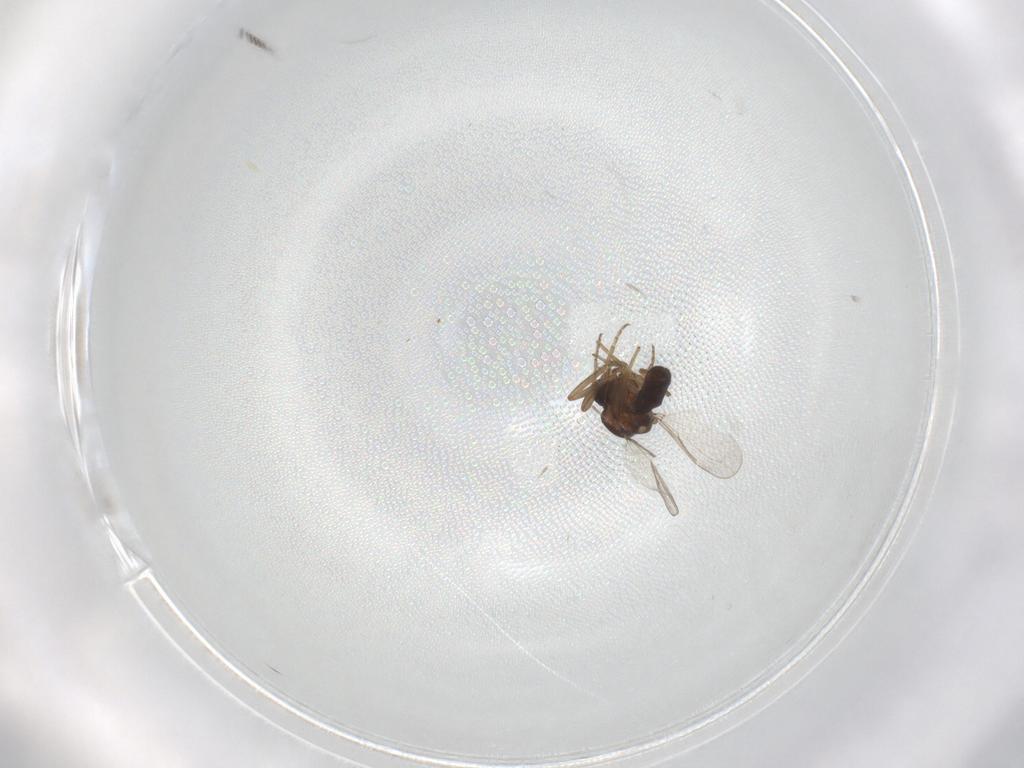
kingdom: Animalia
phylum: Arthropoda
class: Insecta
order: Diptera
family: Ceratopogonidae
